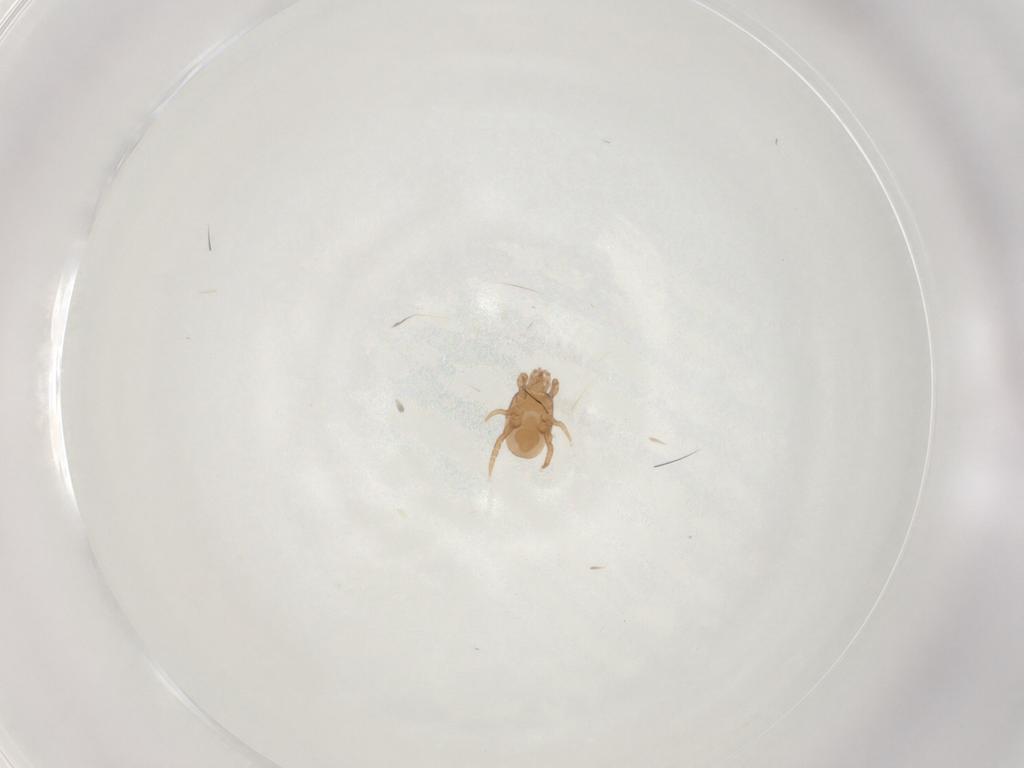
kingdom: Animalia
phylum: Arthropoda
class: Arachnida
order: Mesostigmata
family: Macrochelidae
